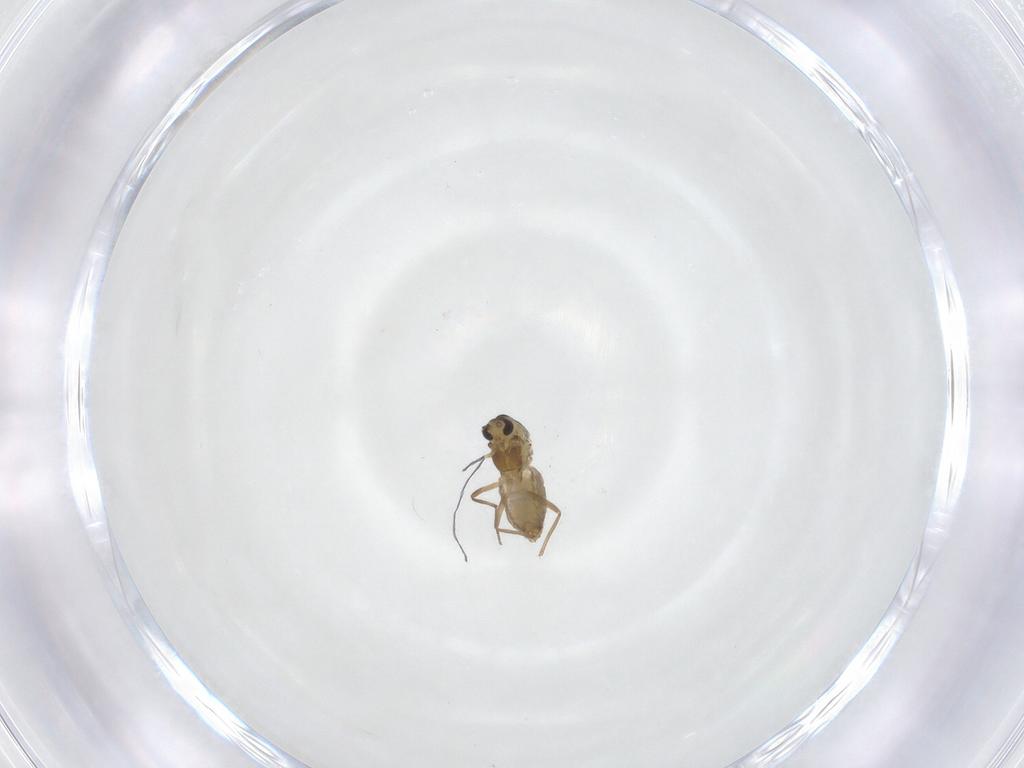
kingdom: Animalia
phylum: Arthropoda
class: Insecta
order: Diptera
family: Chironomidae
